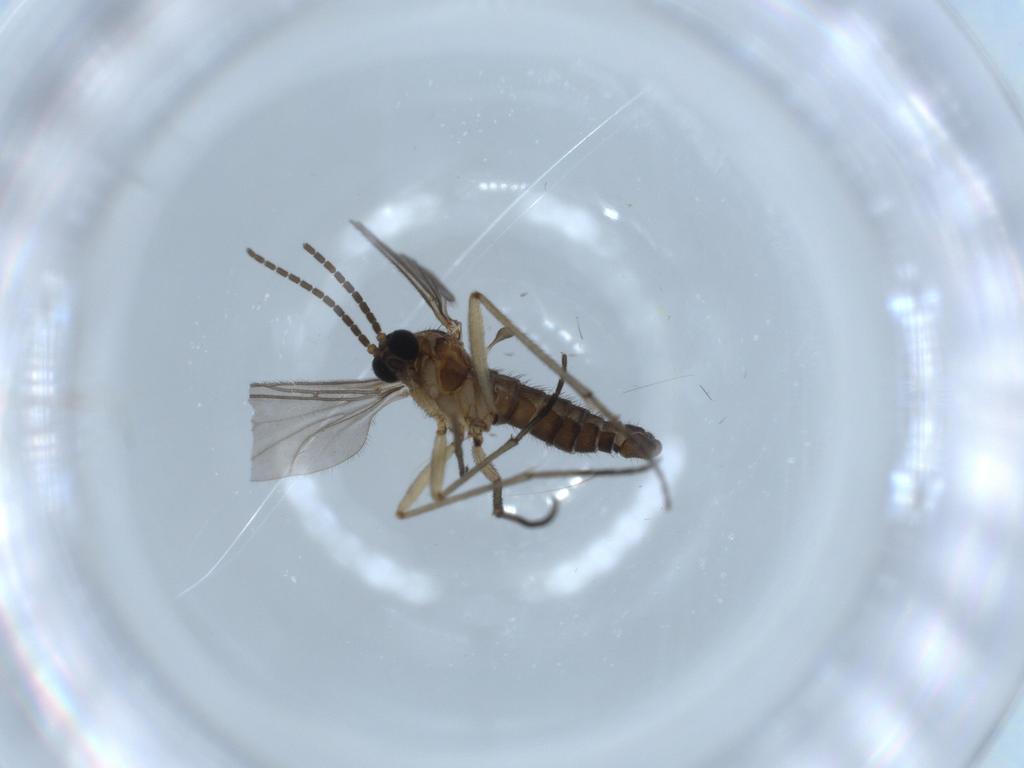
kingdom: Animalia
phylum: Arthropoda
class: Insecta
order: Diptera
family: Sciaridae
